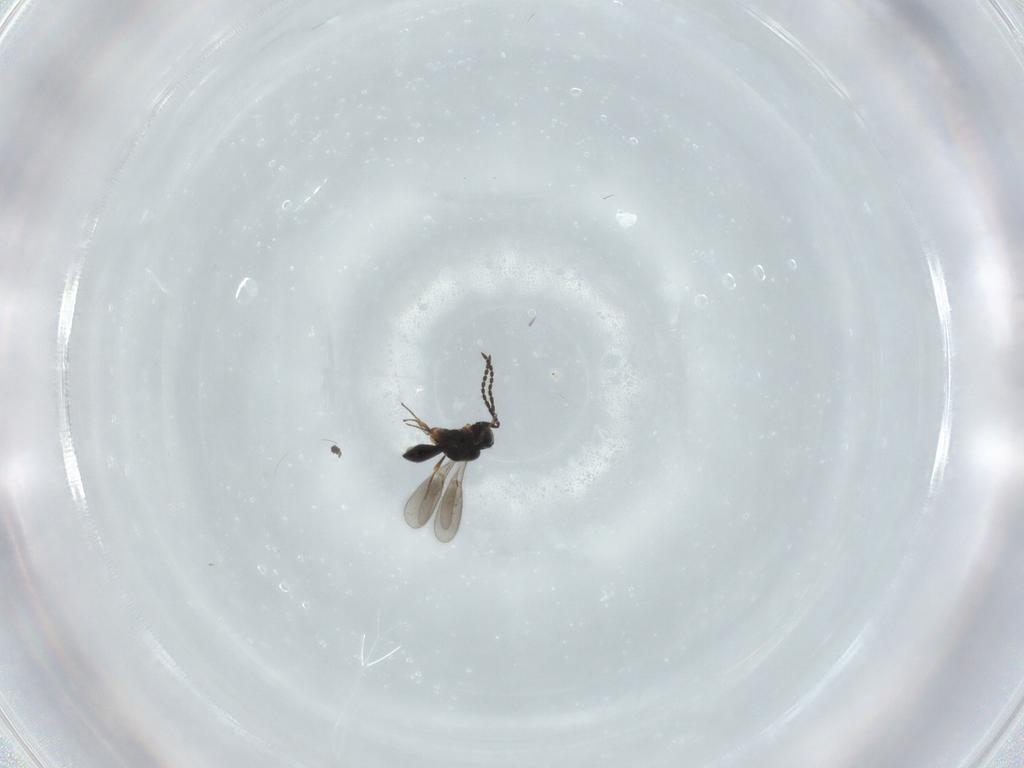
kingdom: Animalia
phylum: Arthropoda
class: Insecta
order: Hymenoptera
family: Scelionidae
